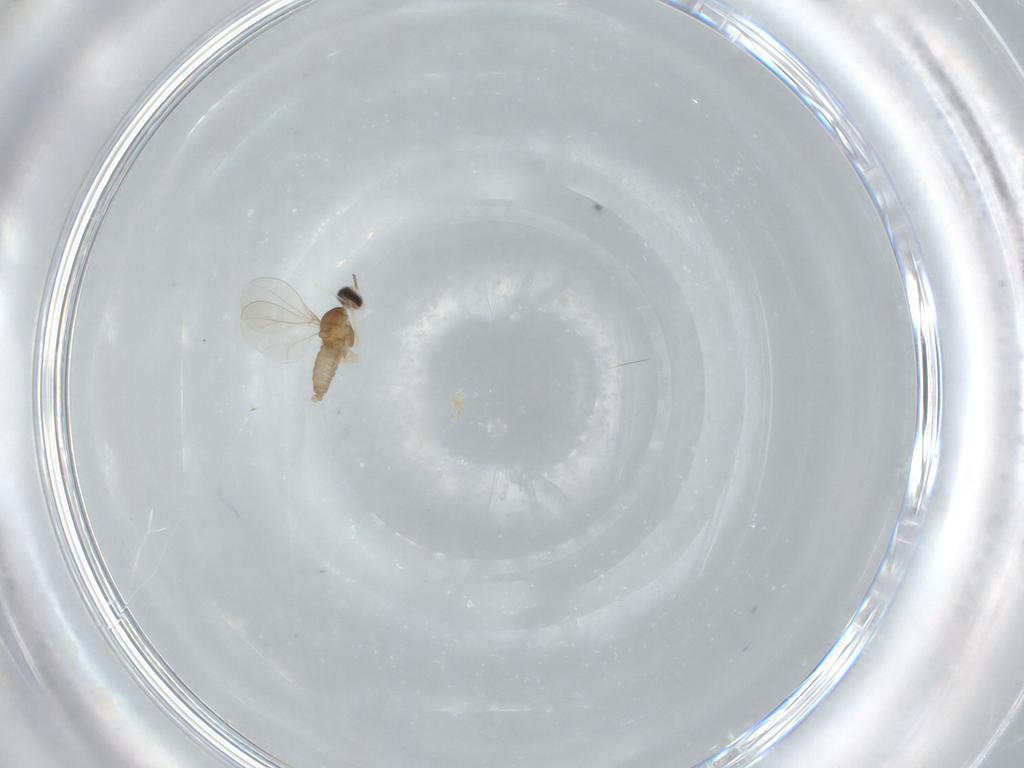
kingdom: Animalia
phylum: Arthropoda
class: Insecta
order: Diptera
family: Cecidomyiidae
